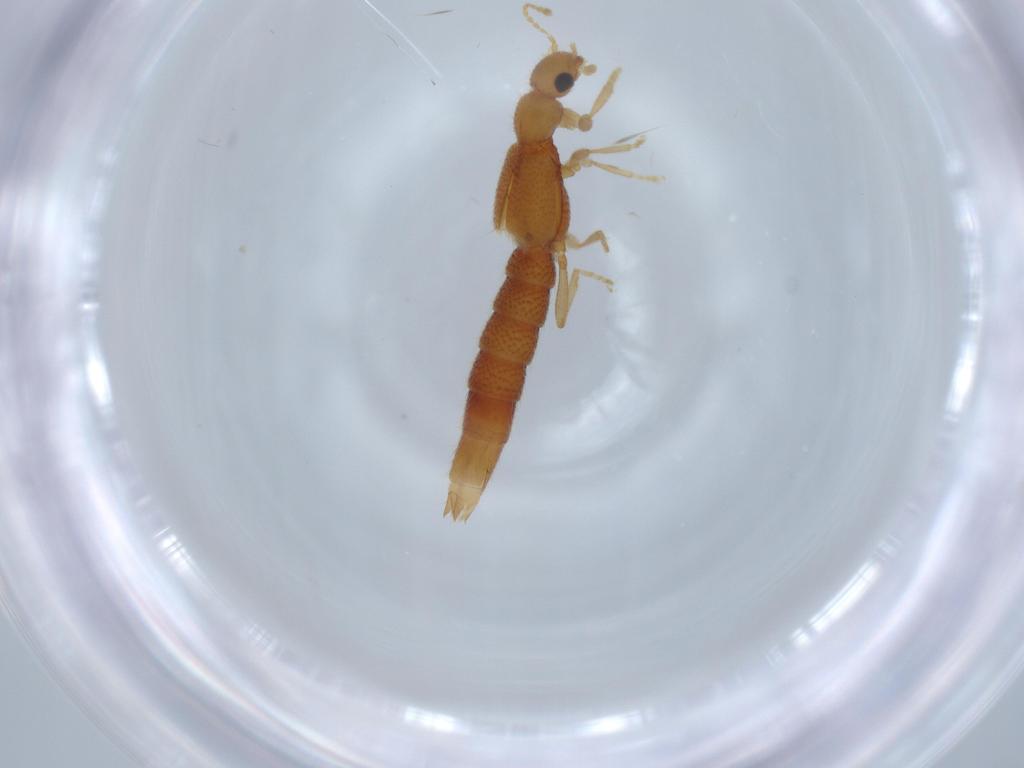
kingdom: Animalia
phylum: Arthropoda
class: Insecta
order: Coleoptera
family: Staphylinidae
